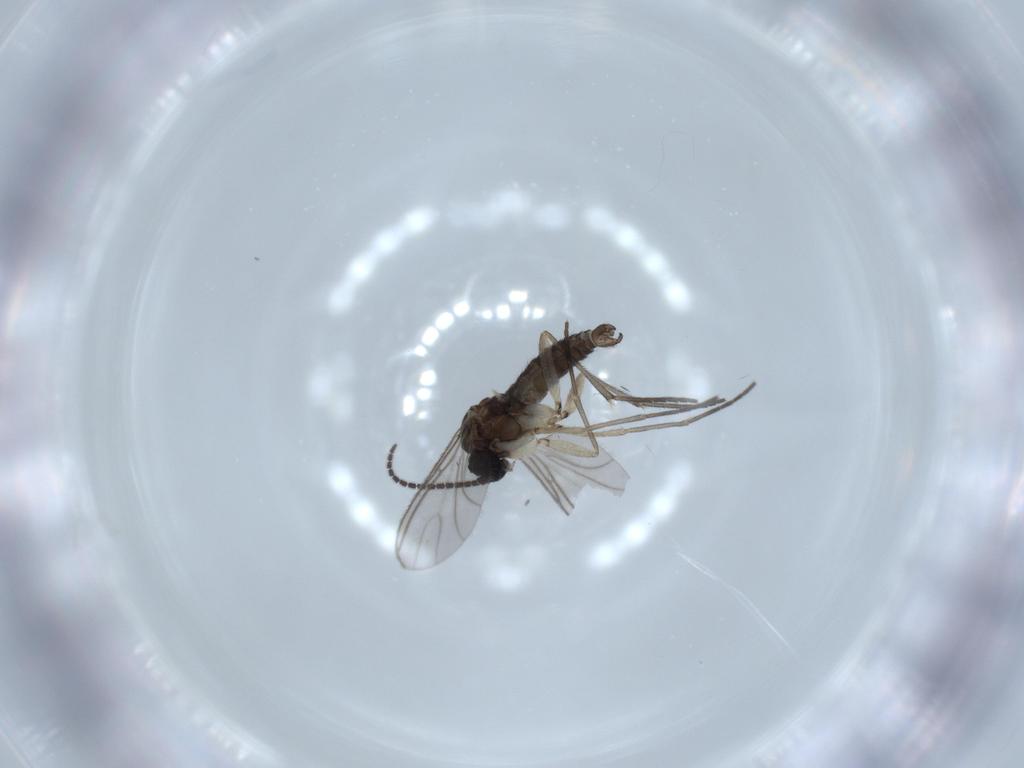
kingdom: Animalia
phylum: Arthropoda
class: Insecta
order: Diptera
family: Sciaridae
